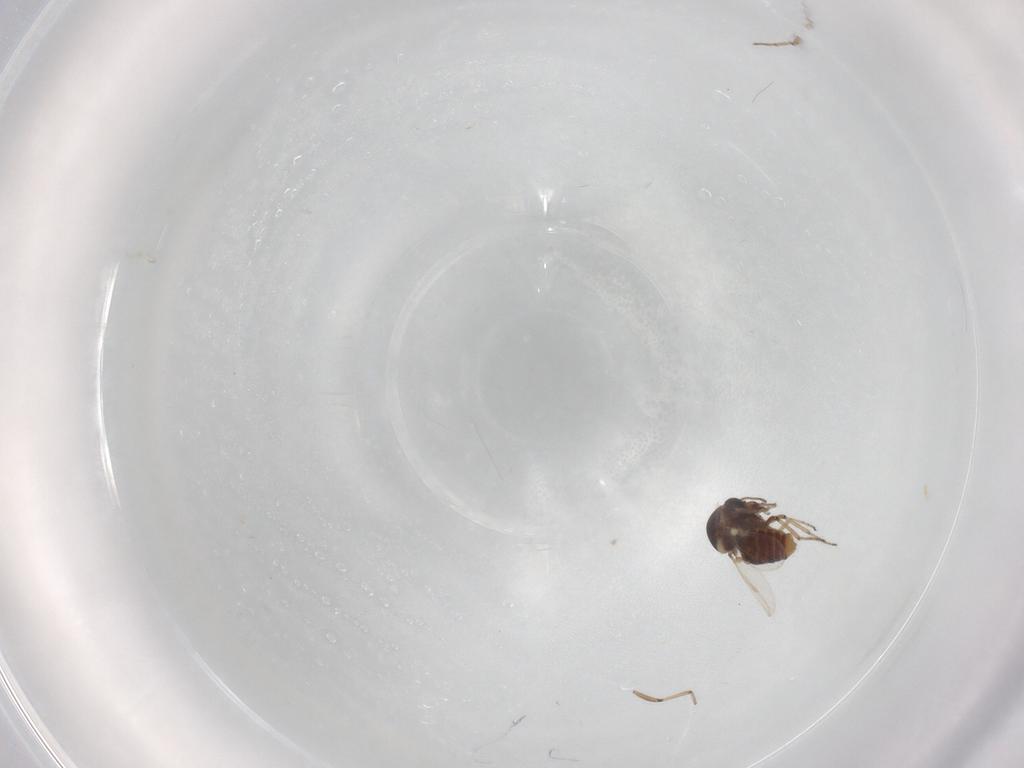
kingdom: Animalia
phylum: Arthropoda
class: Insecta
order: Diptera
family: Ceratopogonidae
